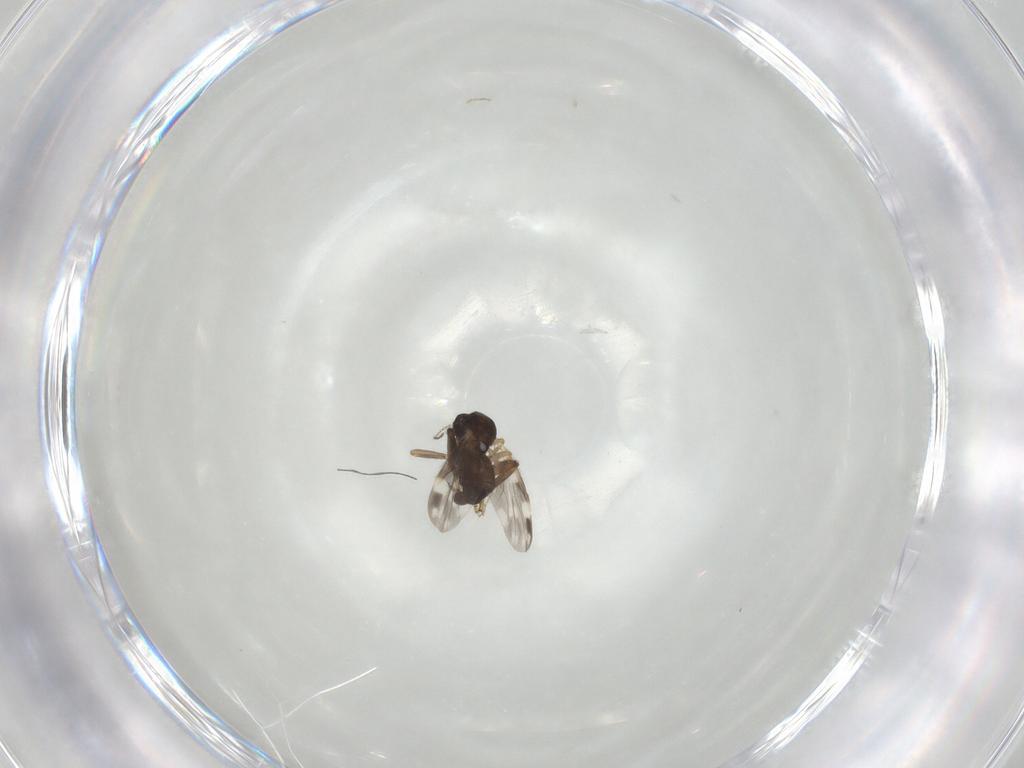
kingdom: Animalia
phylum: Arthropoda
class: Insecta
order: Diptera
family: Ceratopogonidae
